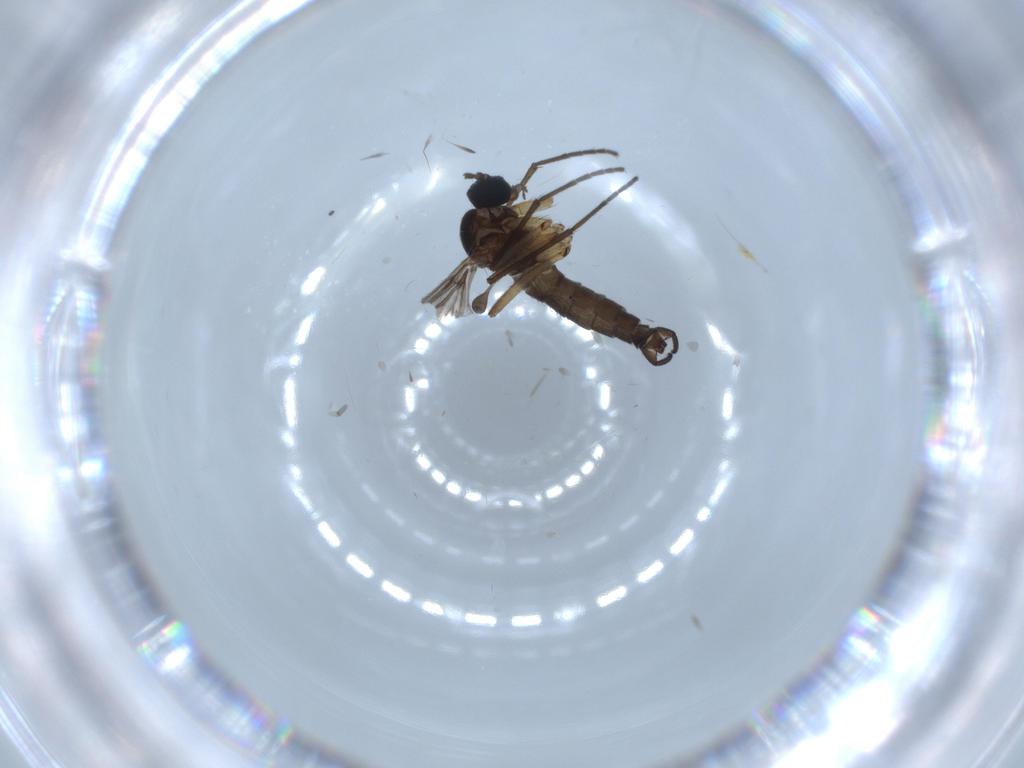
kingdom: Animalia
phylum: Arthropoda
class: Insecta
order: Diptera
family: Sciaridae
